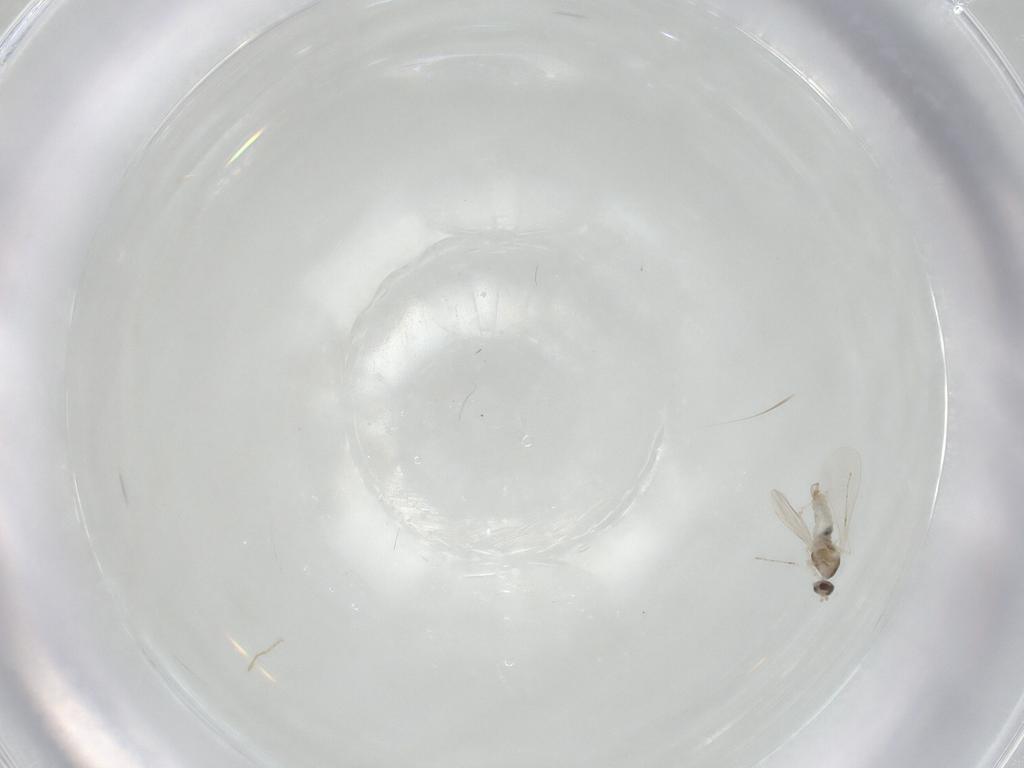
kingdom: Animalia
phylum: Arthropoda
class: Insecta
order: Diptera
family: Cecidomyiidae
